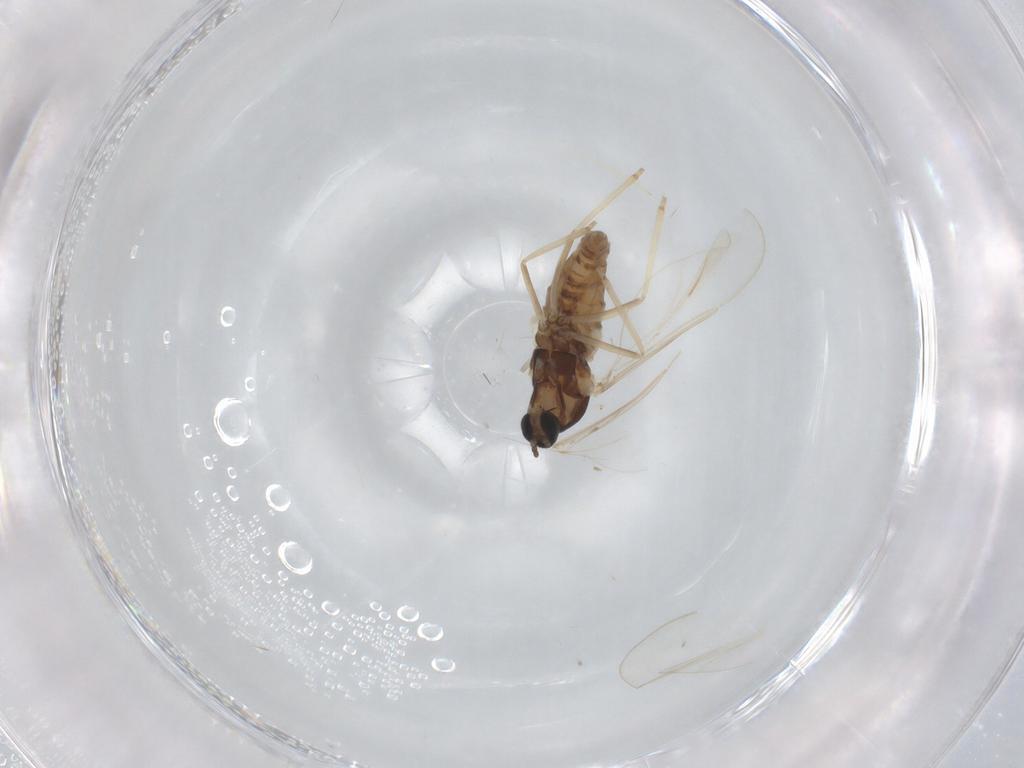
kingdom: Animalia
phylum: Arthropoda
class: Insecta
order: Diptera
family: Cecidomyiidae
